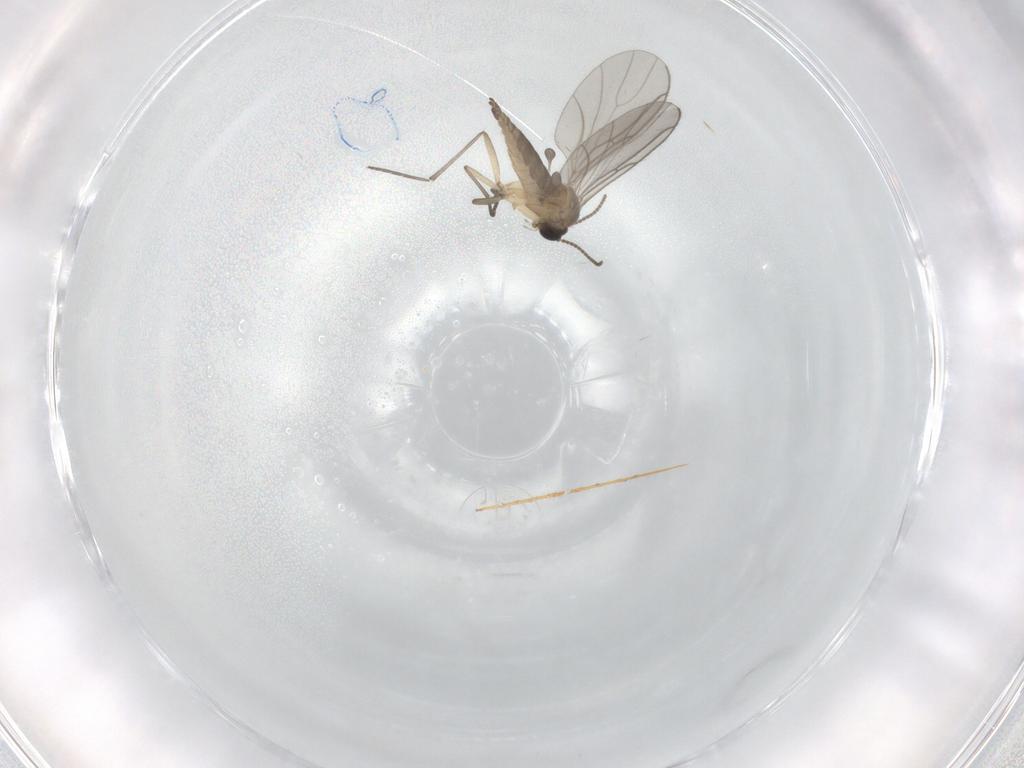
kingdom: Animalia
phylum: Arthropoda
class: Insecta
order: Diptera
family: Sciaridae
